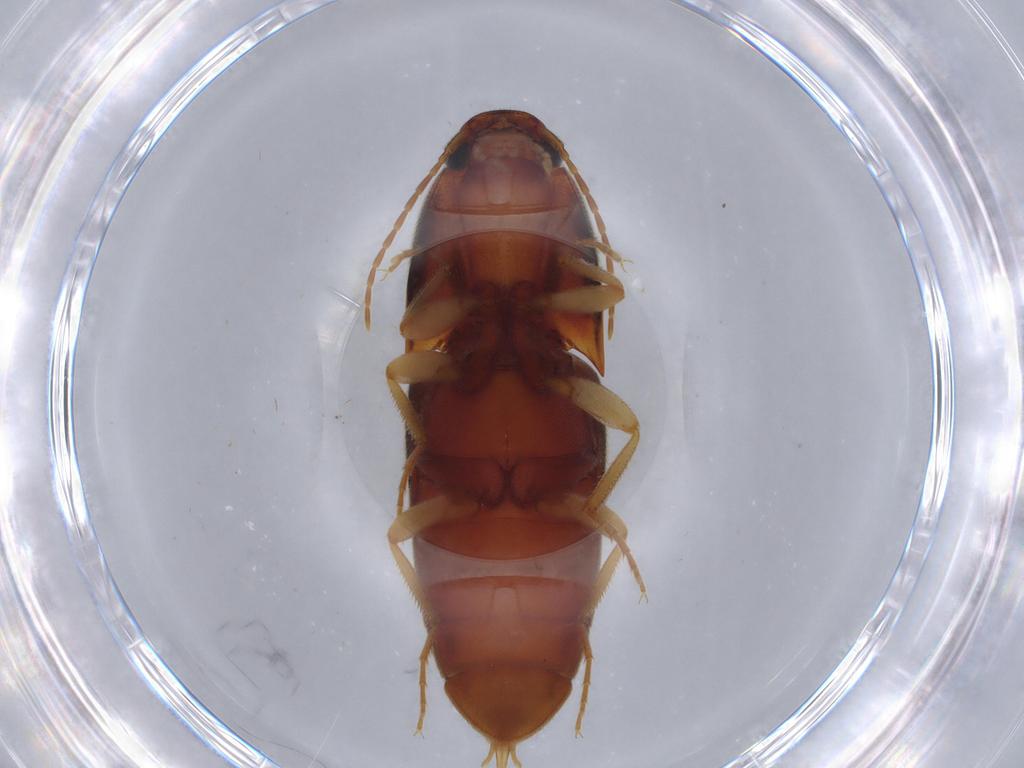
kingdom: Animalia
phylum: Arthropoda
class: Insecta
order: Coleoptera
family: Elateridae
